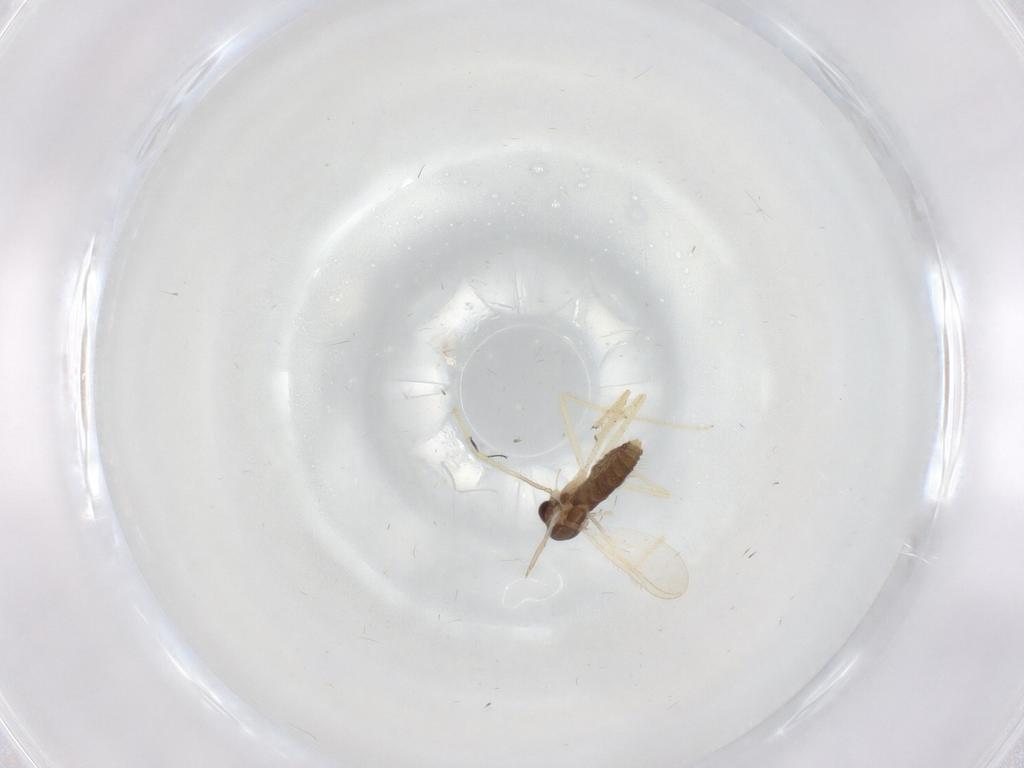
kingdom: Animalia
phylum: Arthropoda
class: Insecta
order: Diptera
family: Chironomidae
